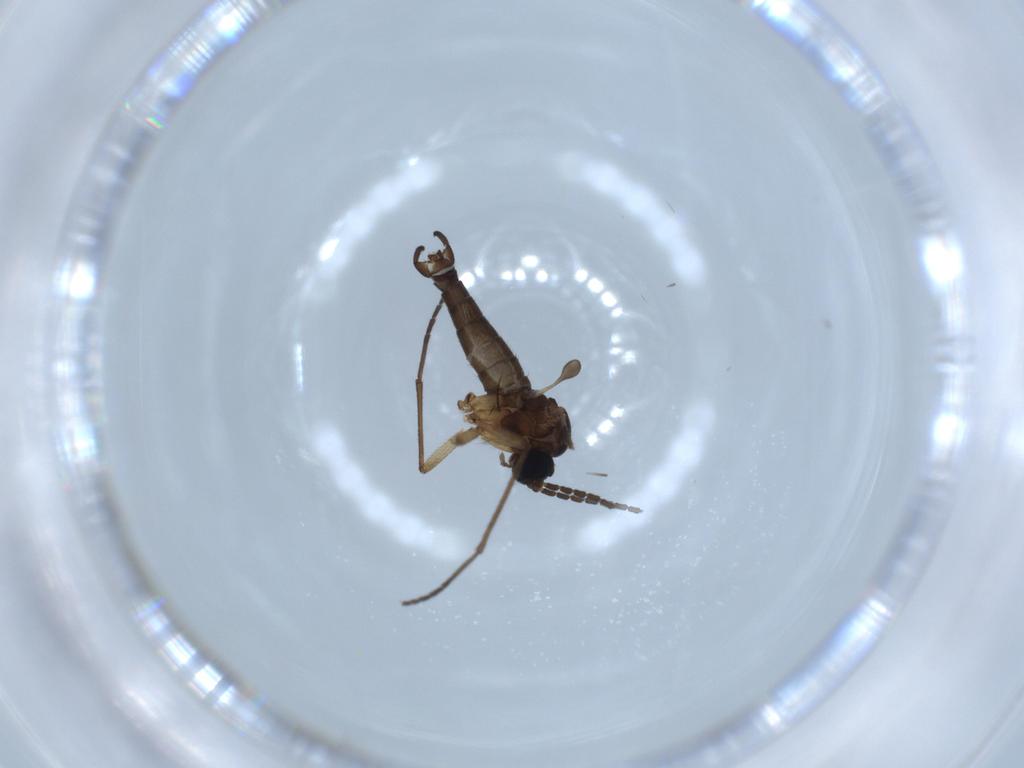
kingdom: Animalia
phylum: Arthropoda
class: Insecta
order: Diptera
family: Sciaridae
